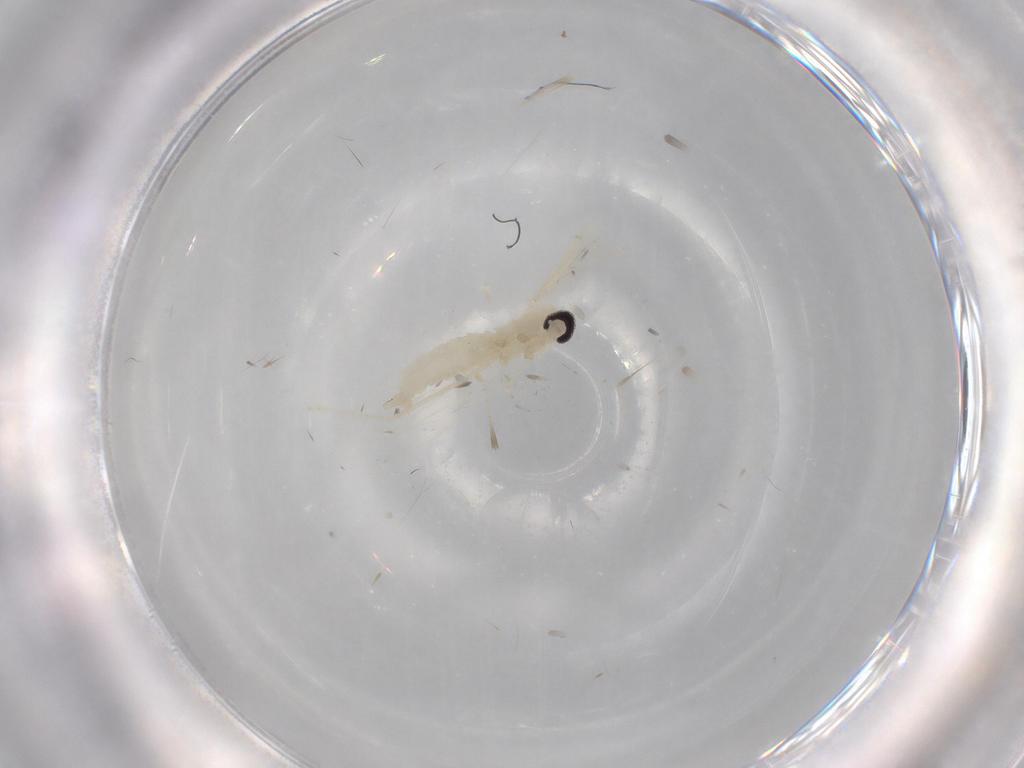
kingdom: Animalia
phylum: Arthropoda
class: Insecta
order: Diptera
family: Cecidomyiidae
